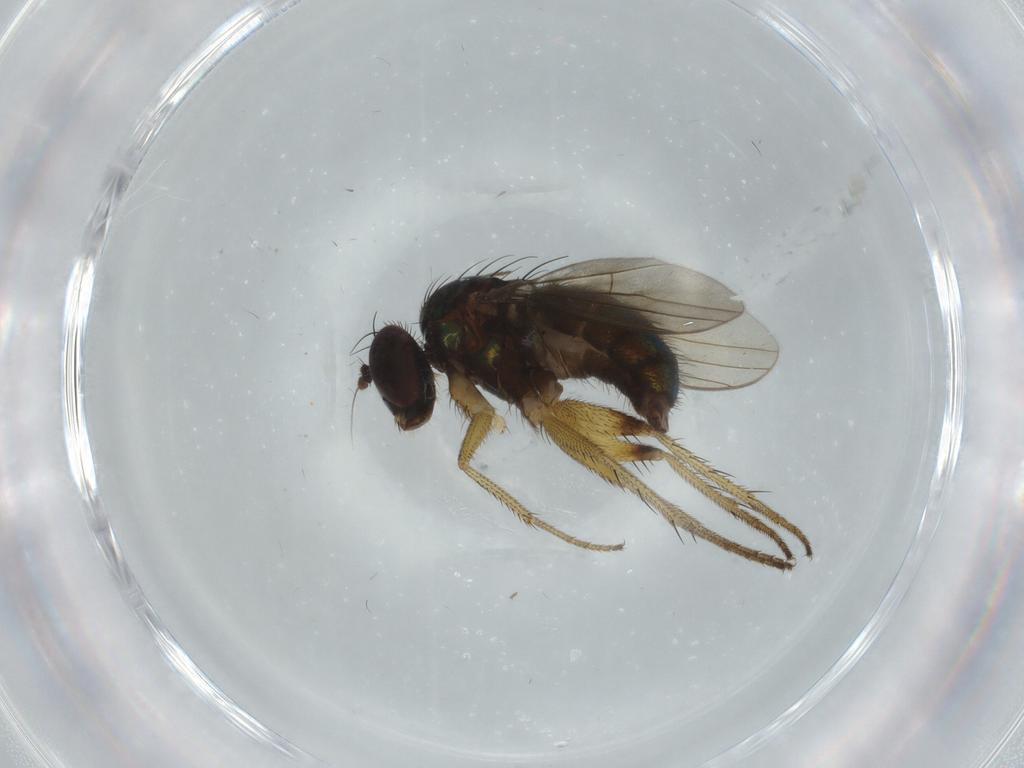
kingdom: Animalia
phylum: Arthropoda
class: Insecta
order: Diptera
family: Dolichopodidae
